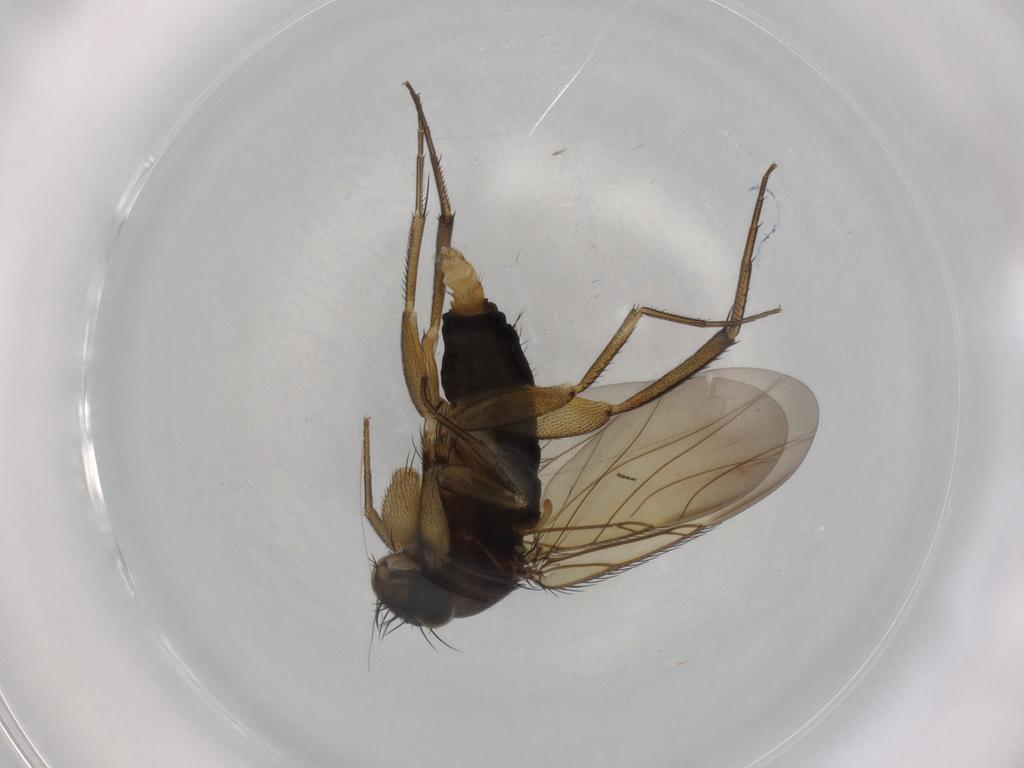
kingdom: Animalia
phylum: Arthropoda
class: Insecta
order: Diptera
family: Phoridae
